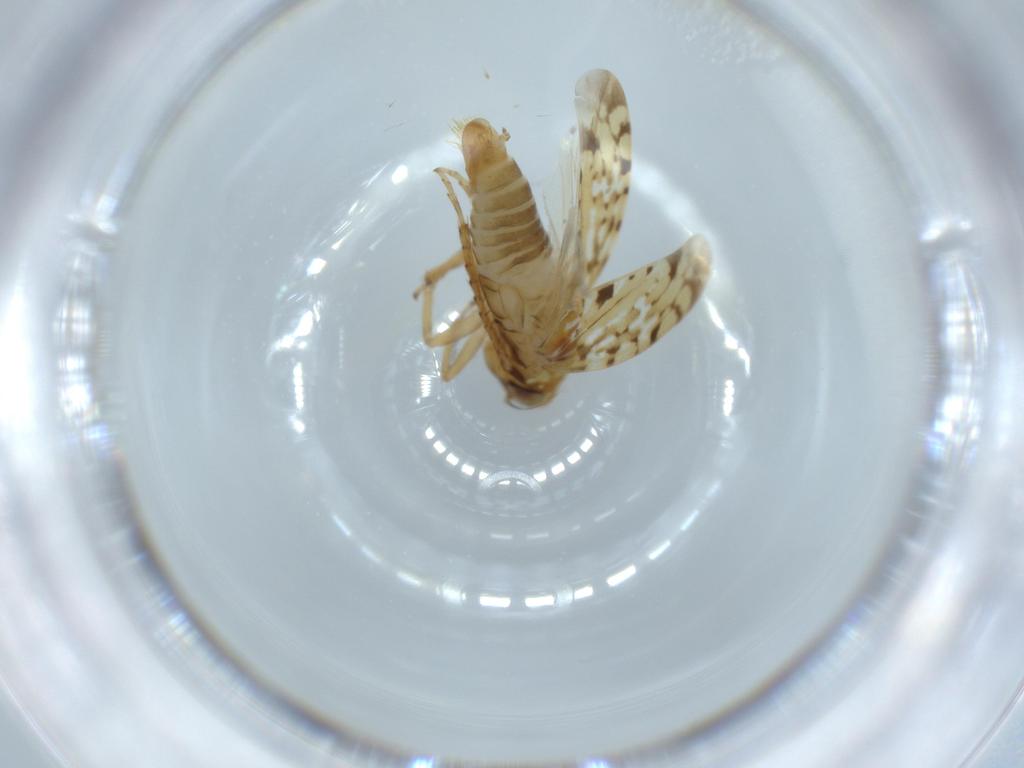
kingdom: Animalia
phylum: Arthropoda
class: Insecta
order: Hemiptera
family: Cicadellidae
